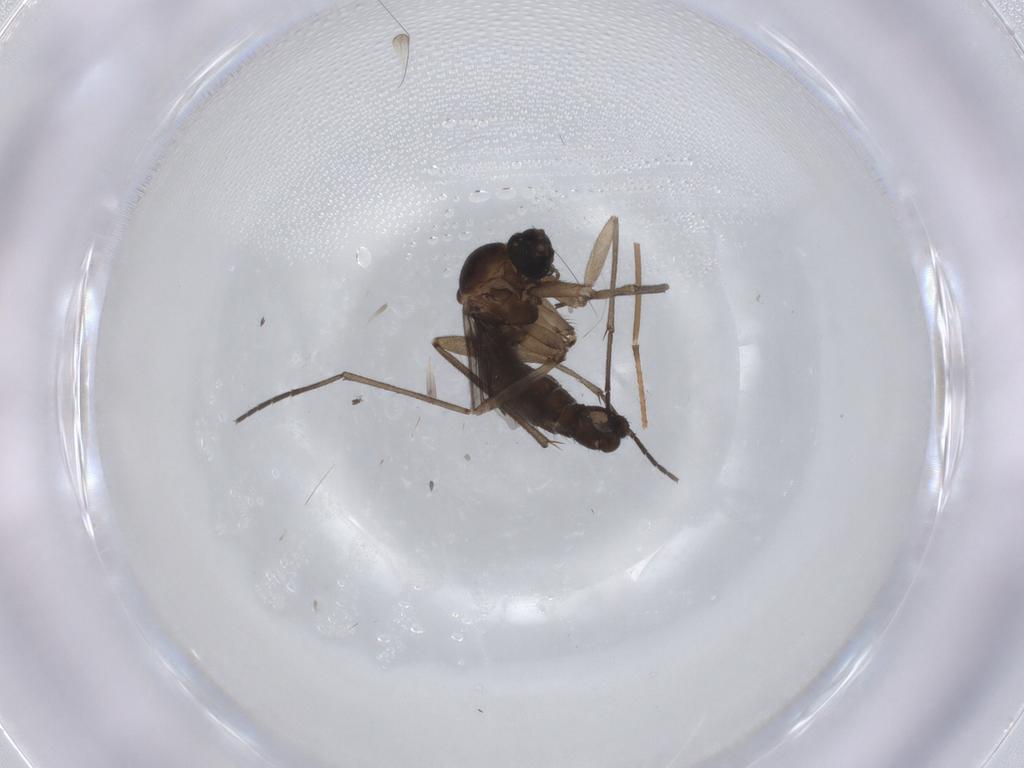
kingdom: Animalia
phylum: Arthropoda
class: Insecta
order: Diptera
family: Sciaridae
